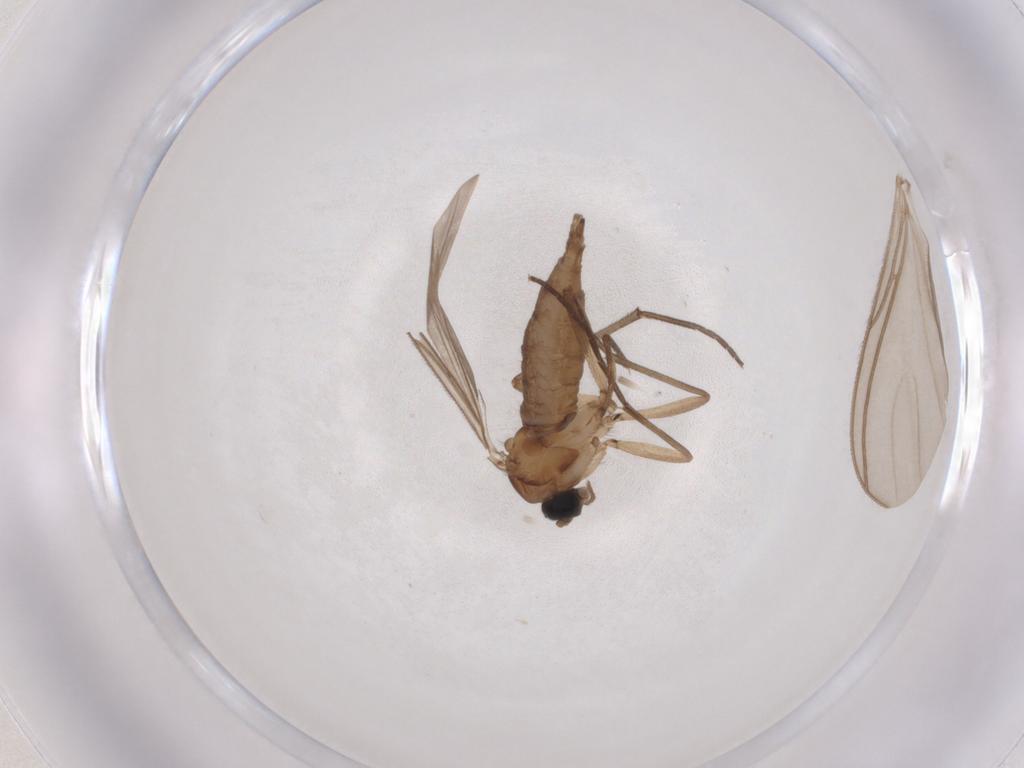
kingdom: Animalia
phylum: Arthropoda
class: Insecta
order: Diptera
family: Sciaridae
